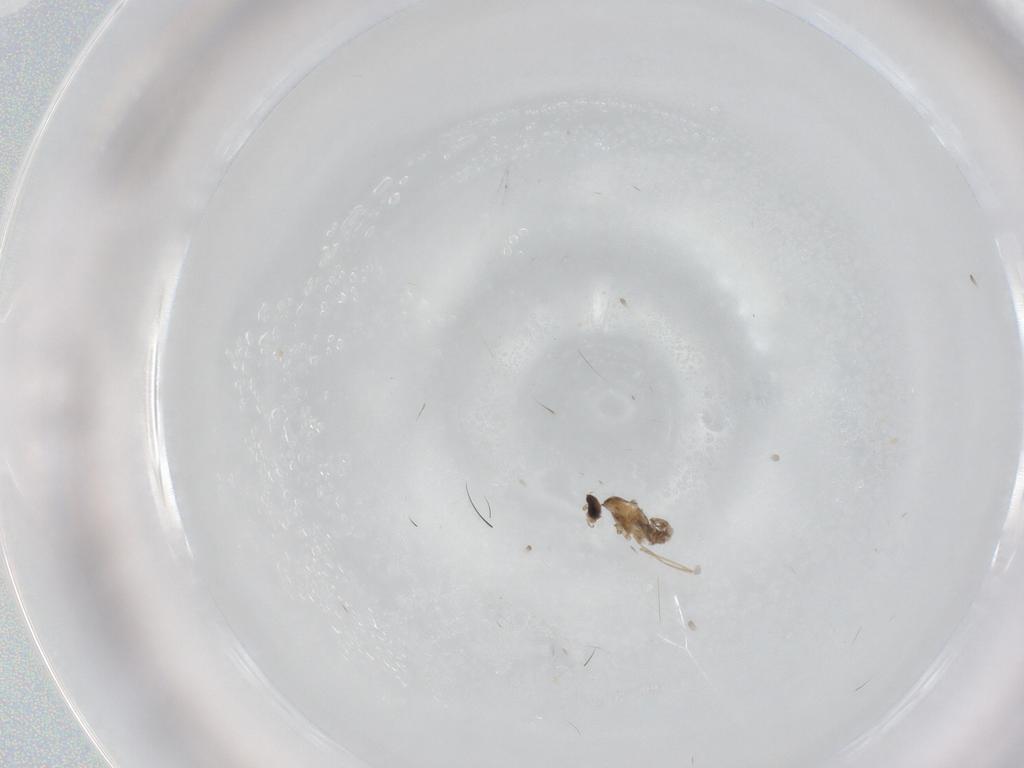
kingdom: Animalia
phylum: Arthropoda
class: Insecta
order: Diptera
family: Cecidomyiidae
